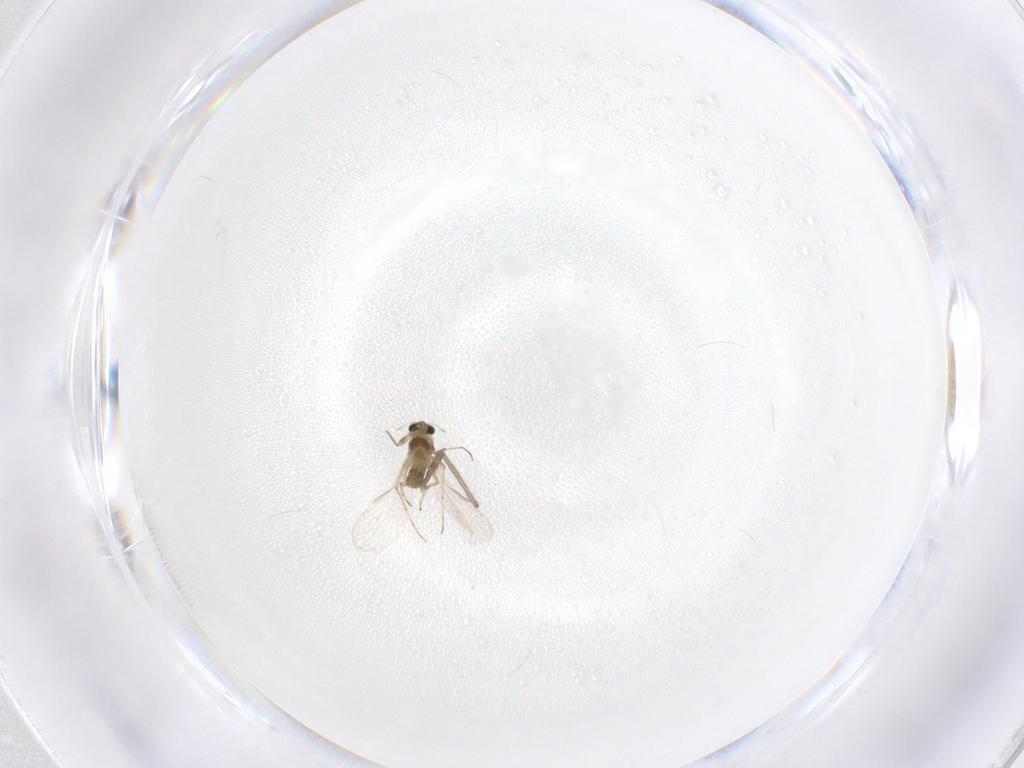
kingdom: Animalia
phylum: Arthropoda
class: Insecta
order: Diptera
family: Chironomidae
